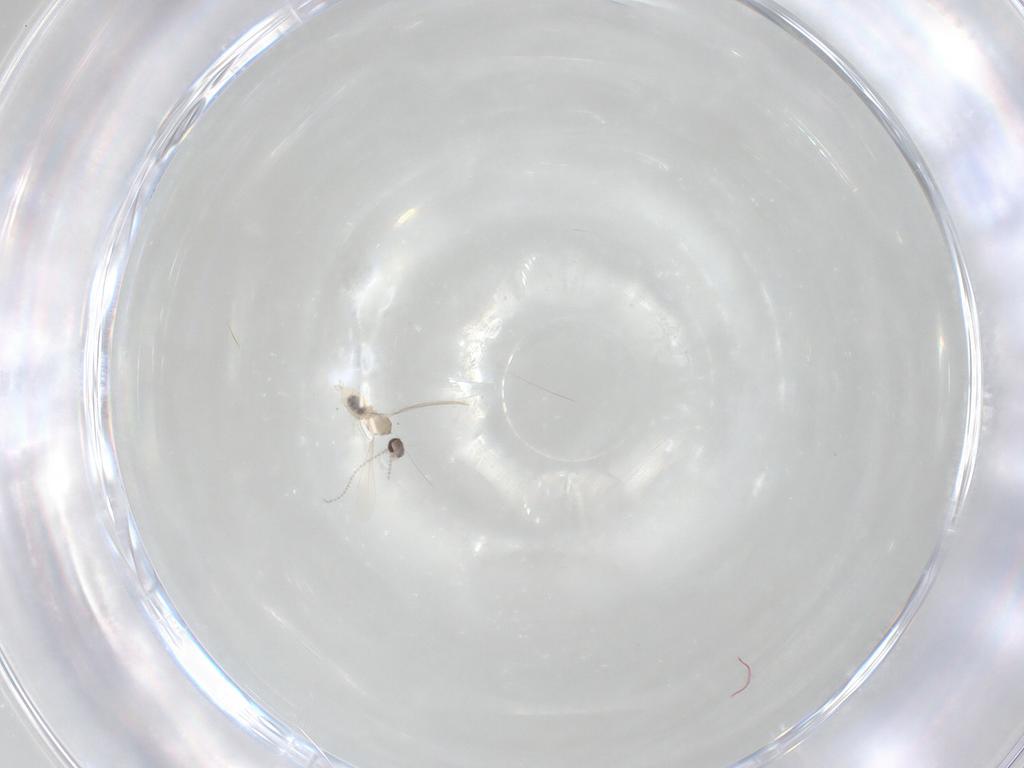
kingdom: Animalia
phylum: Arthropoda
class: Insecta
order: Diptera
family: Cecidomyiidae
